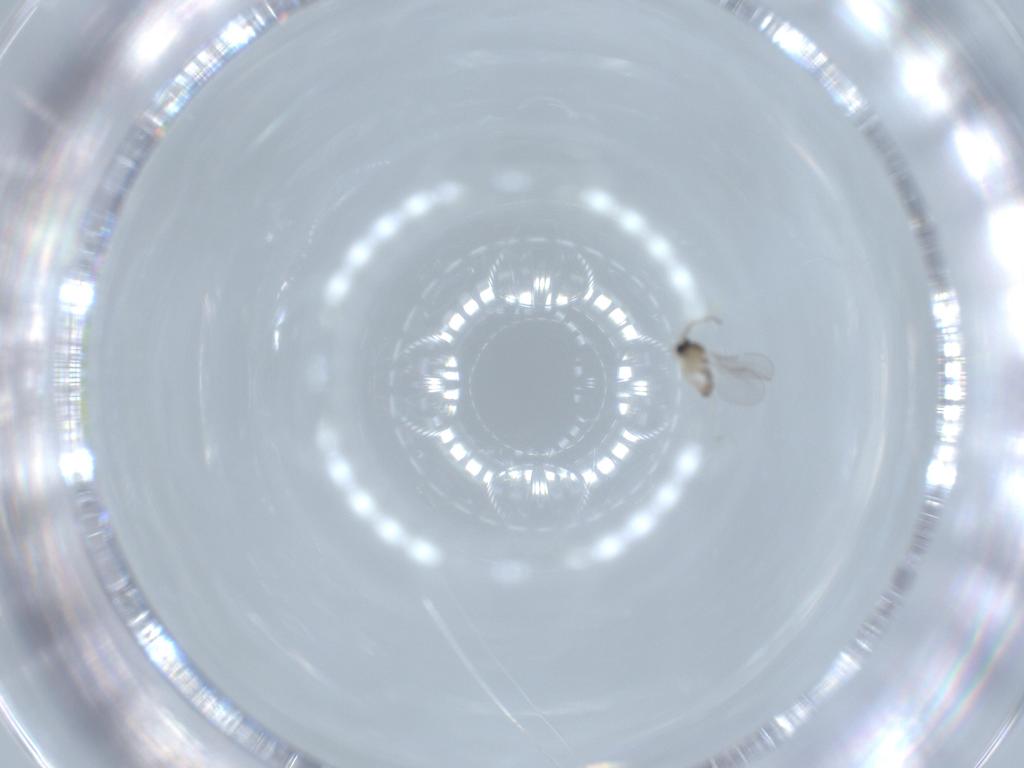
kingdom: Animalia
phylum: Arthropoda
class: Insecta
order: Diptera
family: Cecidomyiidae
